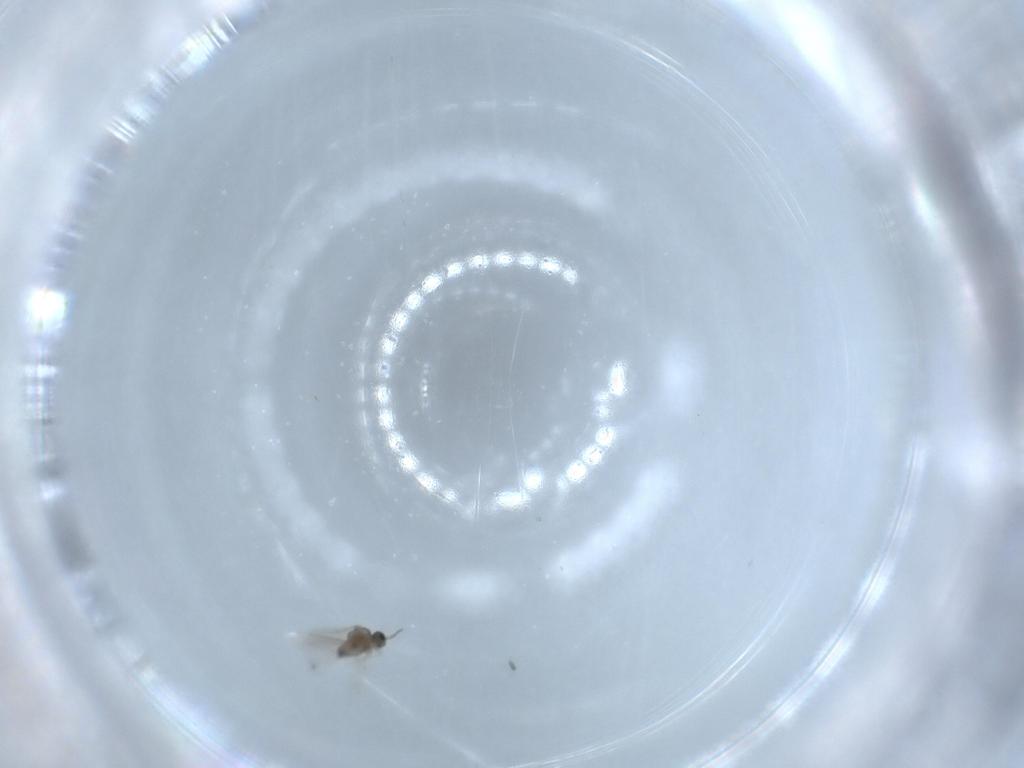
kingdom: Animalia
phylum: Arthropoda
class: Insecta
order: Diptera
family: Cecidomyiidae
